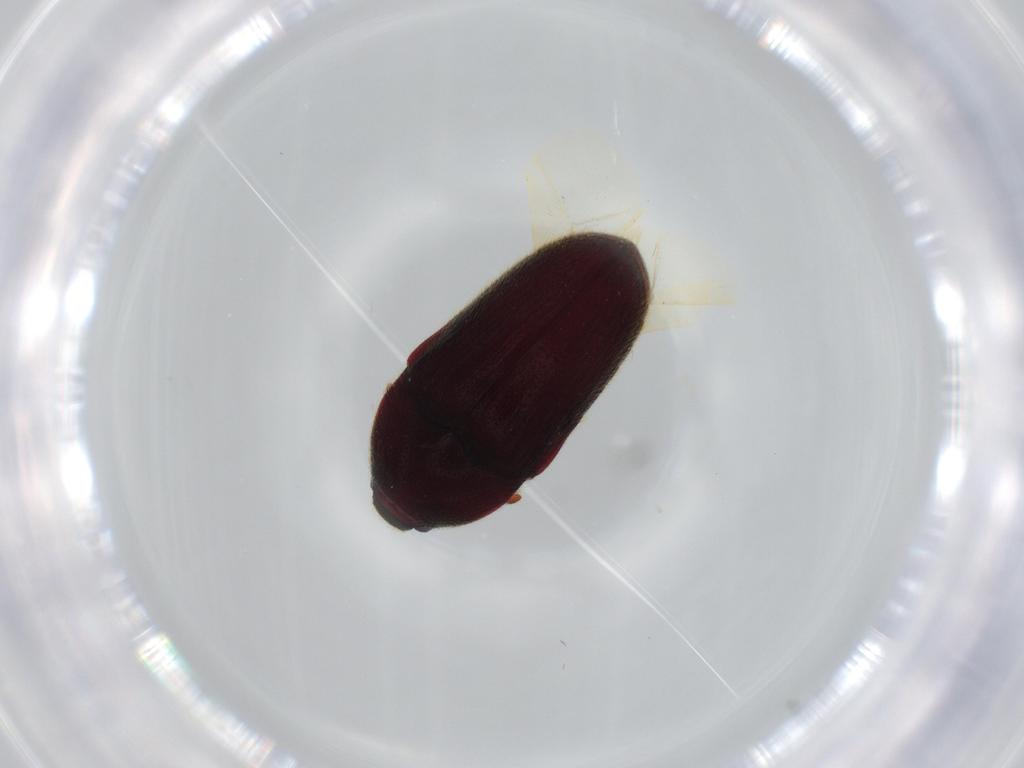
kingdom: Animalia
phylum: Arthropoda
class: Insecta
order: Coleoptera
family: Chrysomelidae
